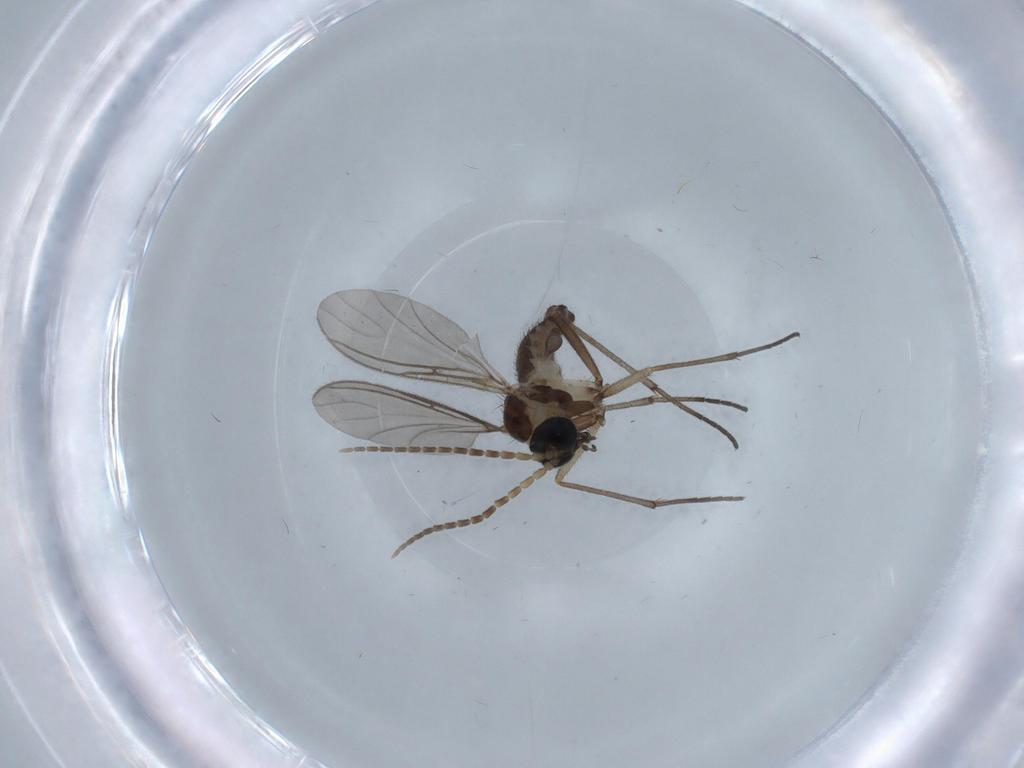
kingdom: Animalia
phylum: Arthropoda
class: Insecta
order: Diptera
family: Sciaridae
